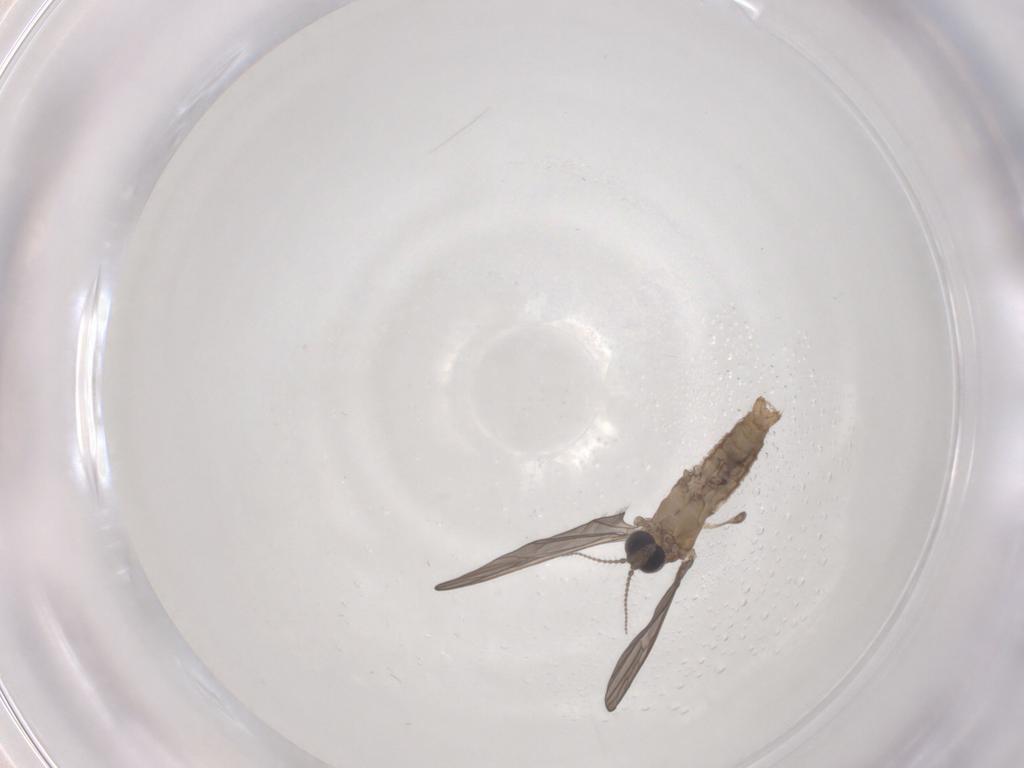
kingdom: Animalia
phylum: Arthropoda
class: Insecta
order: Diptera
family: Limoniidae
